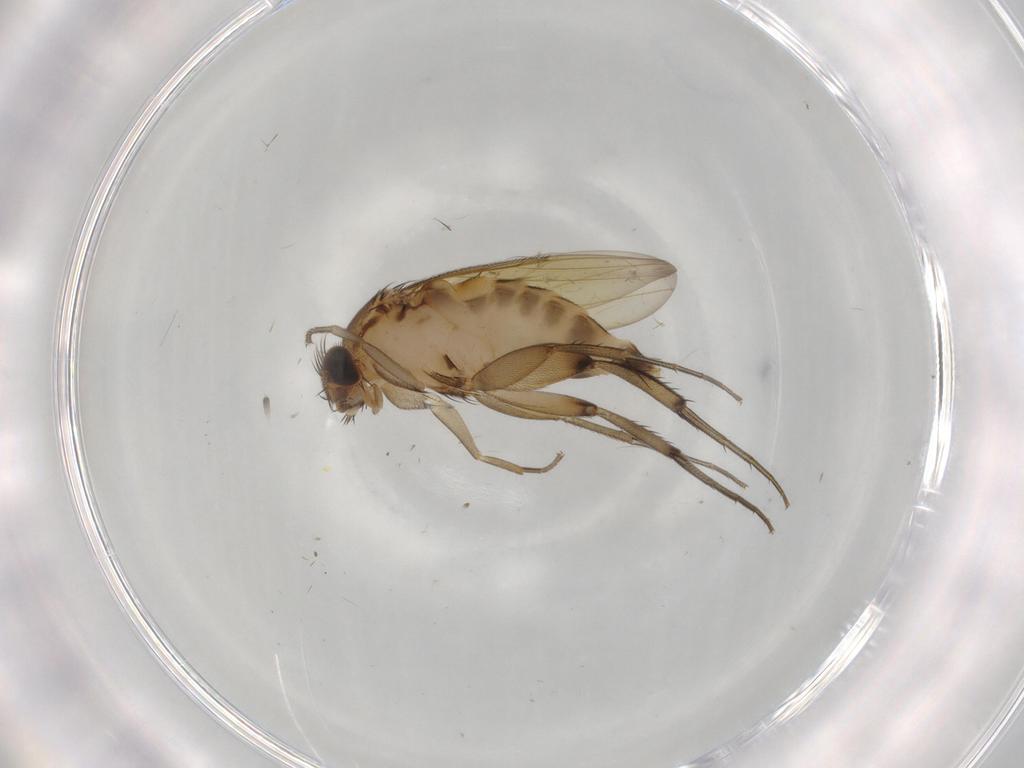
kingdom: Animalia
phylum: Arthropoda
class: Insecta
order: Diptera
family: Phoridae
